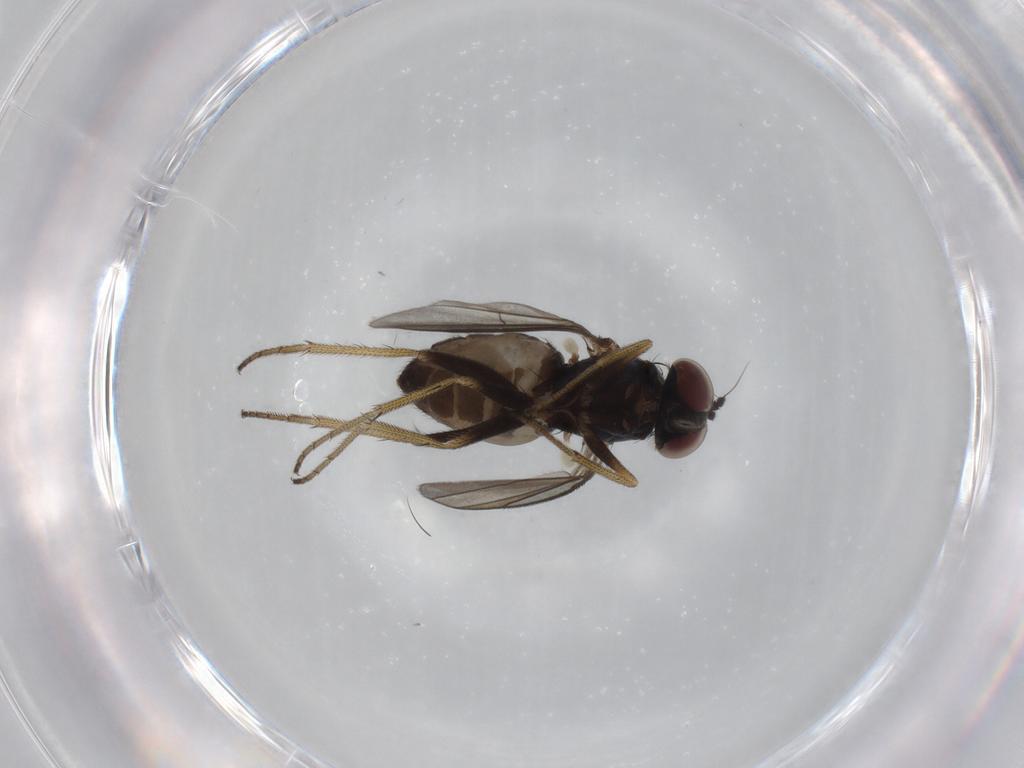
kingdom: Animalia
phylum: Arthropoda
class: Insecta
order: Diptera
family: Dolichopodidae
